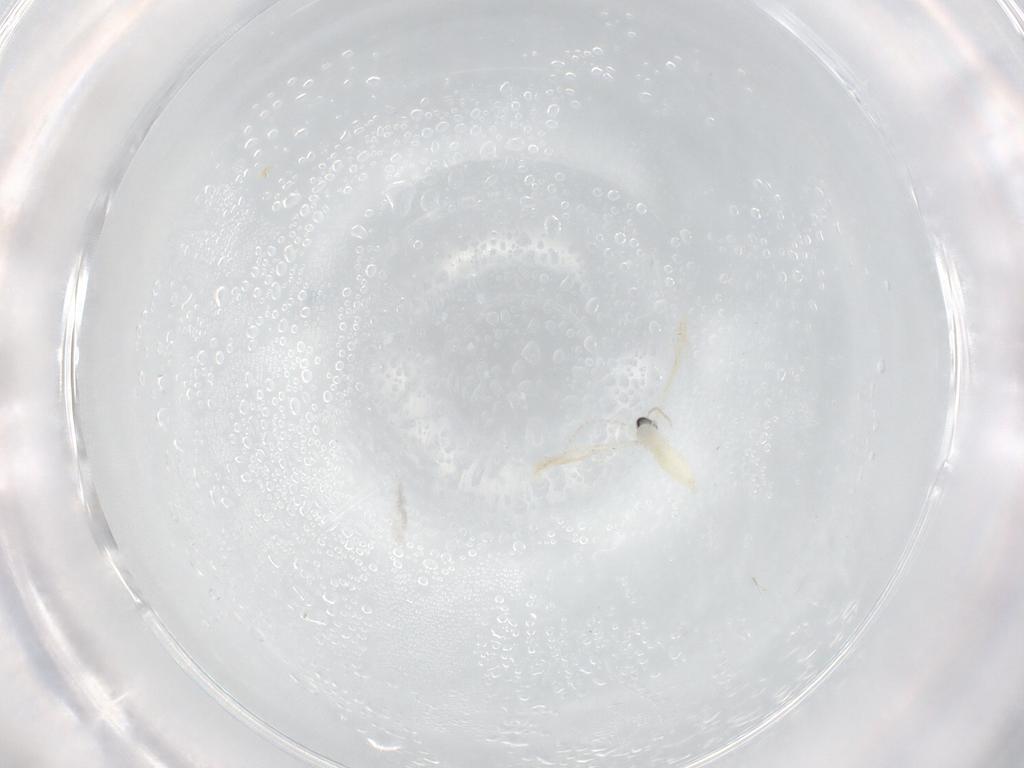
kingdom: Animalia
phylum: Arthropoda
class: Insecta
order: Diptera
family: Cecidomyiidae
